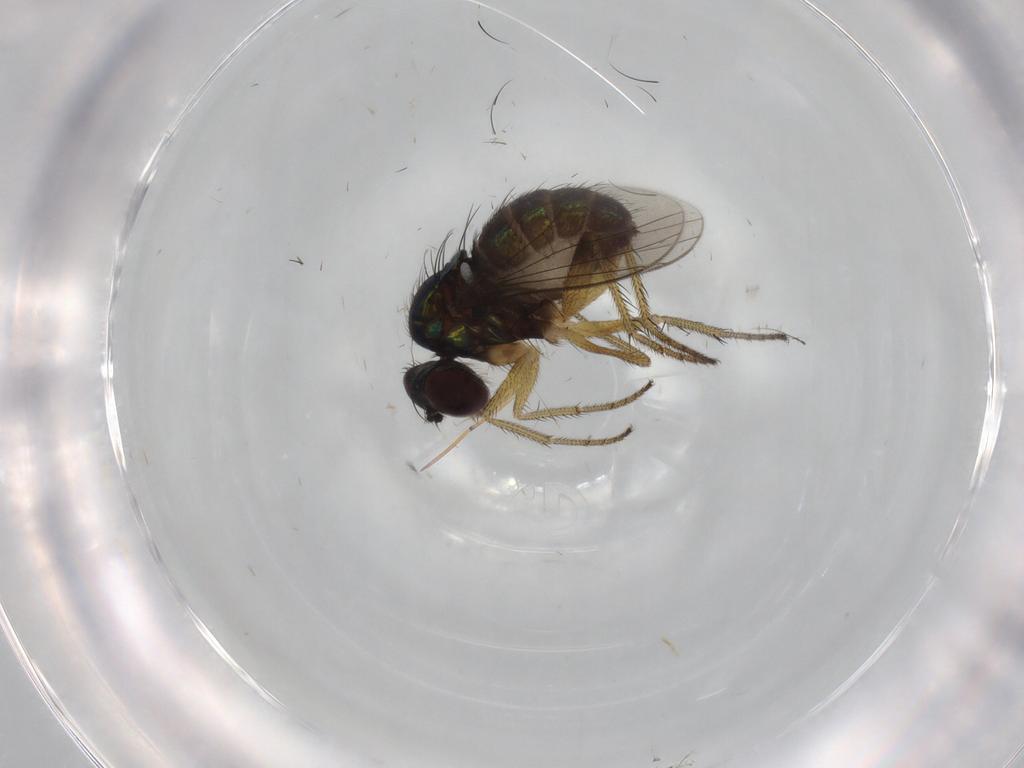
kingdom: Animalia
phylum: Arthropoda
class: Insecta
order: Diptera
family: Dolichopodidae
